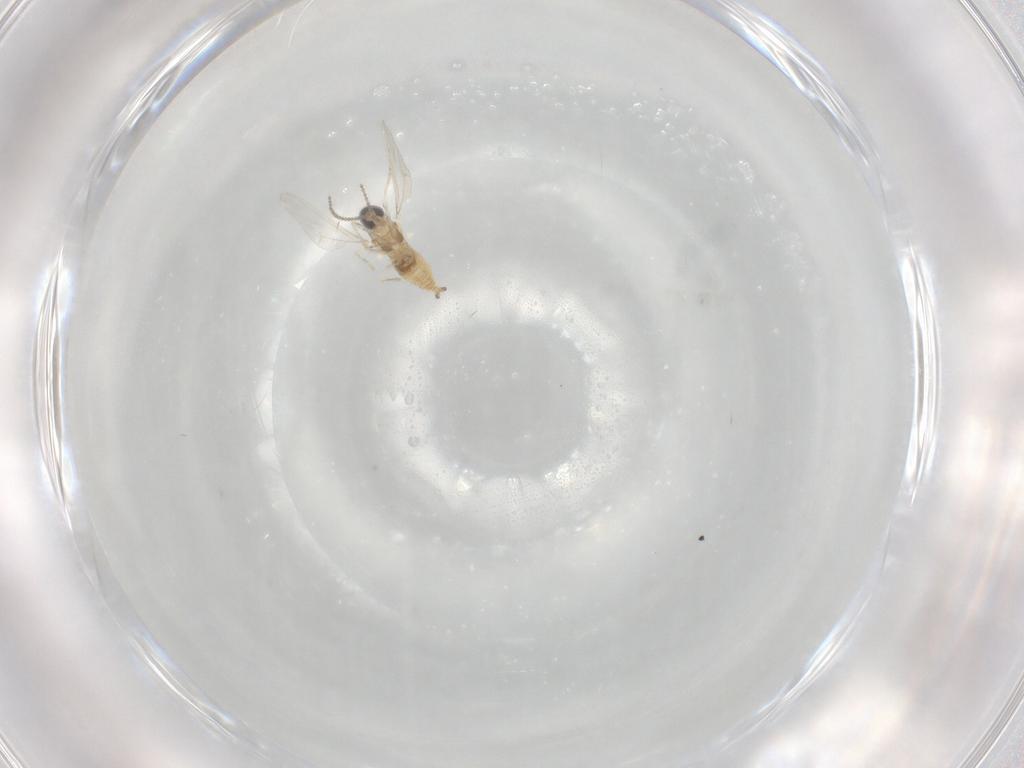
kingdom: Animalia
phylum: Arthropoda
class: Insecta
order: Diptera
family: Cecidomyiidae
